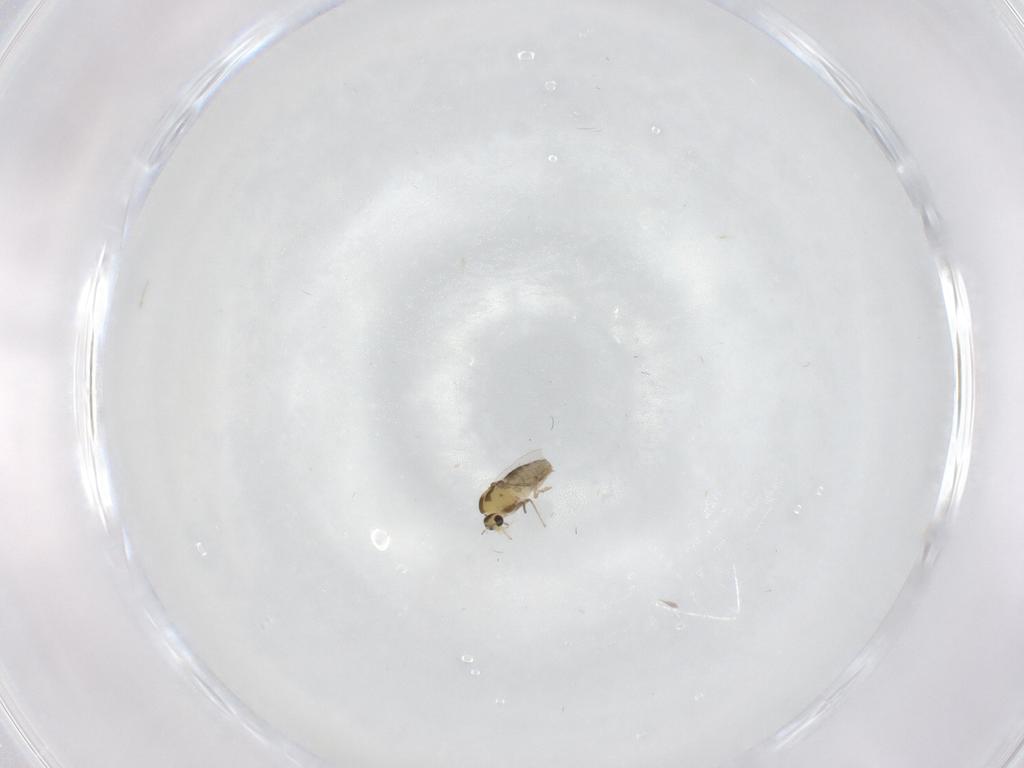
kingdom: Animalia
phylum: Arthropoda
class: Insecta
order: Diptera
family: Chironomidae
